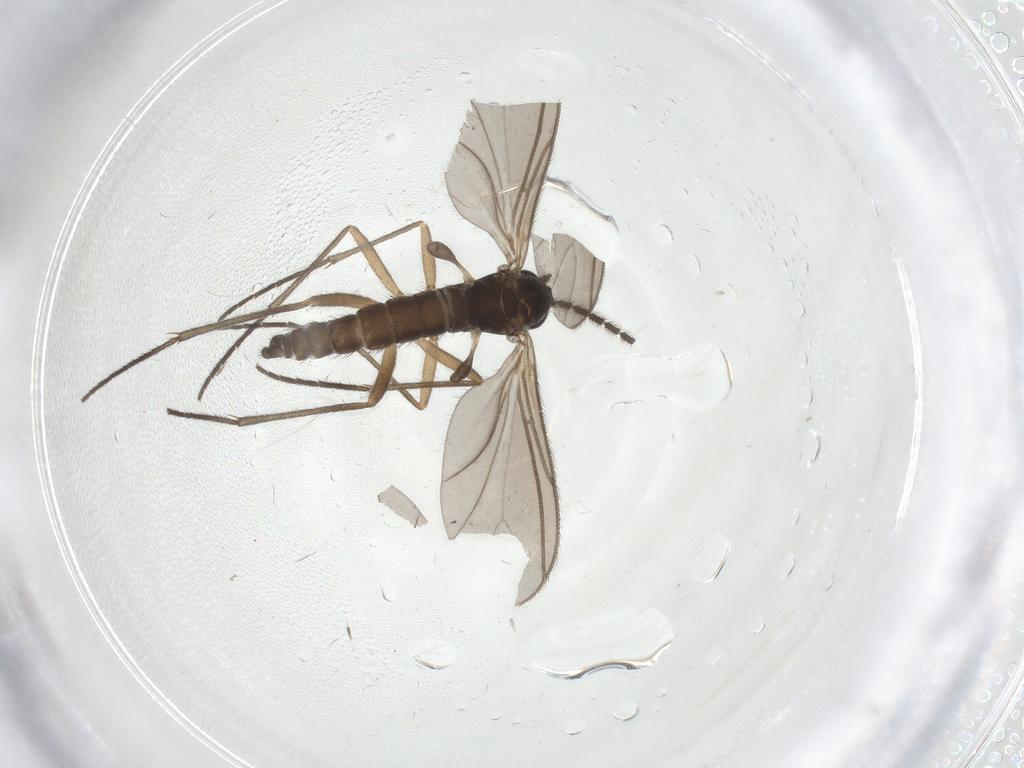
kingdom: Animalia
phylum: Arthropoda
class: Insecta
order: Diptera
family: Sciaridae
